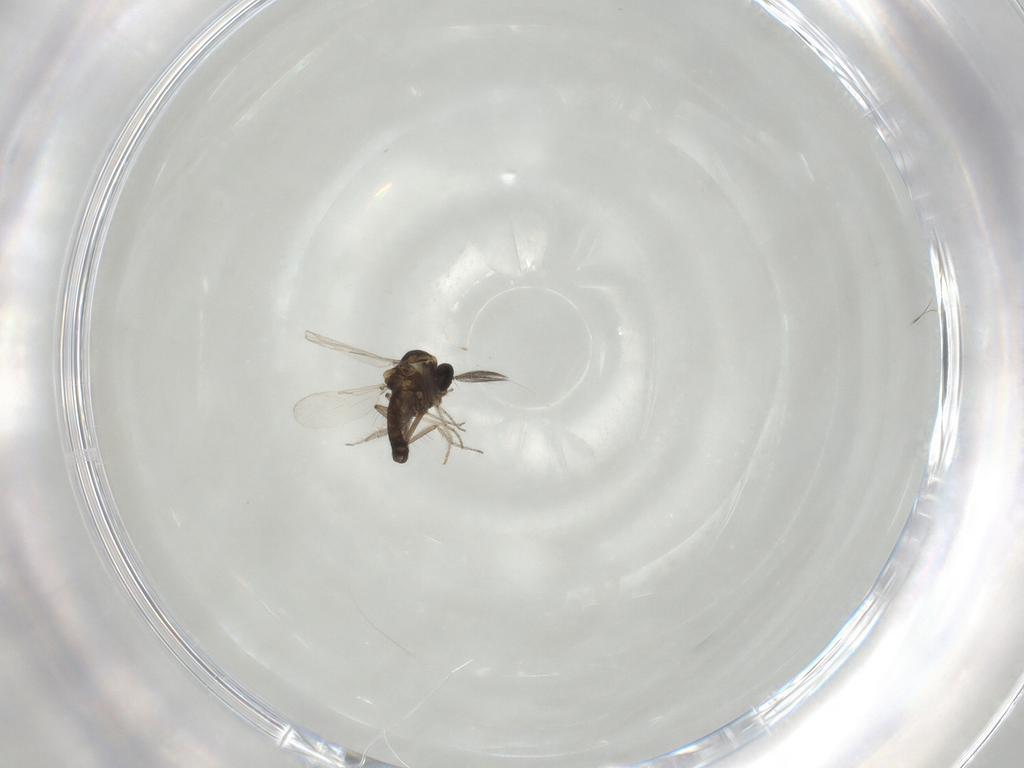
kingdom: Animalia
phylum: Arthropoda
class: Insecta
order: Diptera
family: Ceratopogonidae
